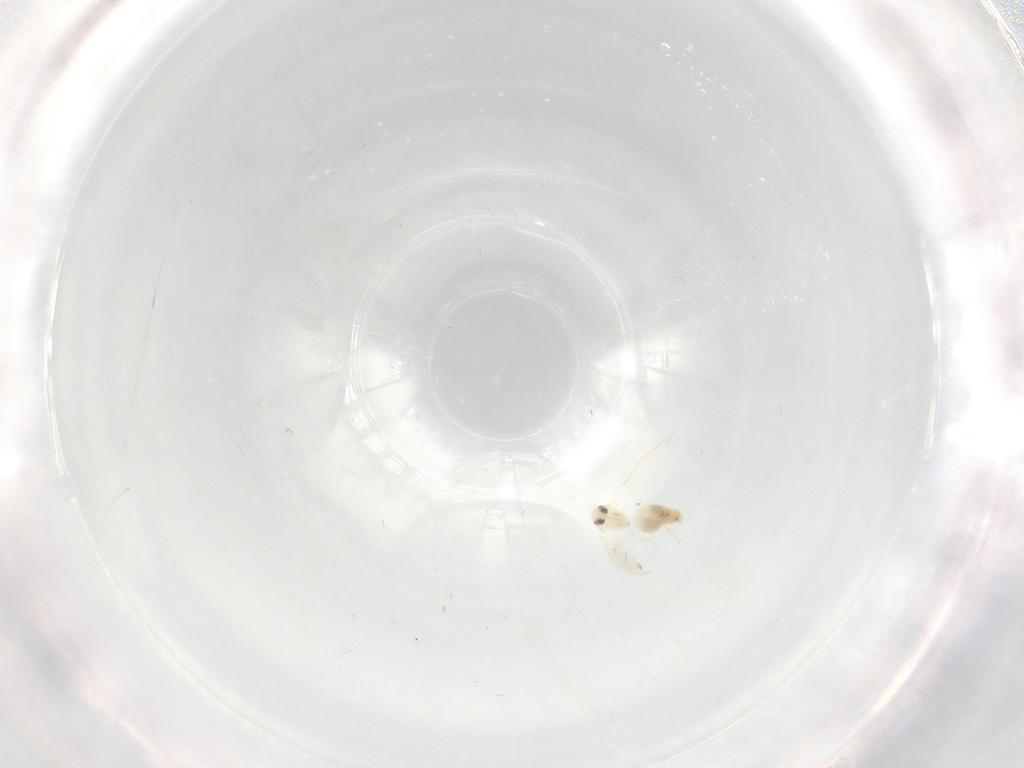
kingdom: Animalia
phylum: Arthropoda
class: Insecta
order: Hemiptera
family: Aleyrodidae
